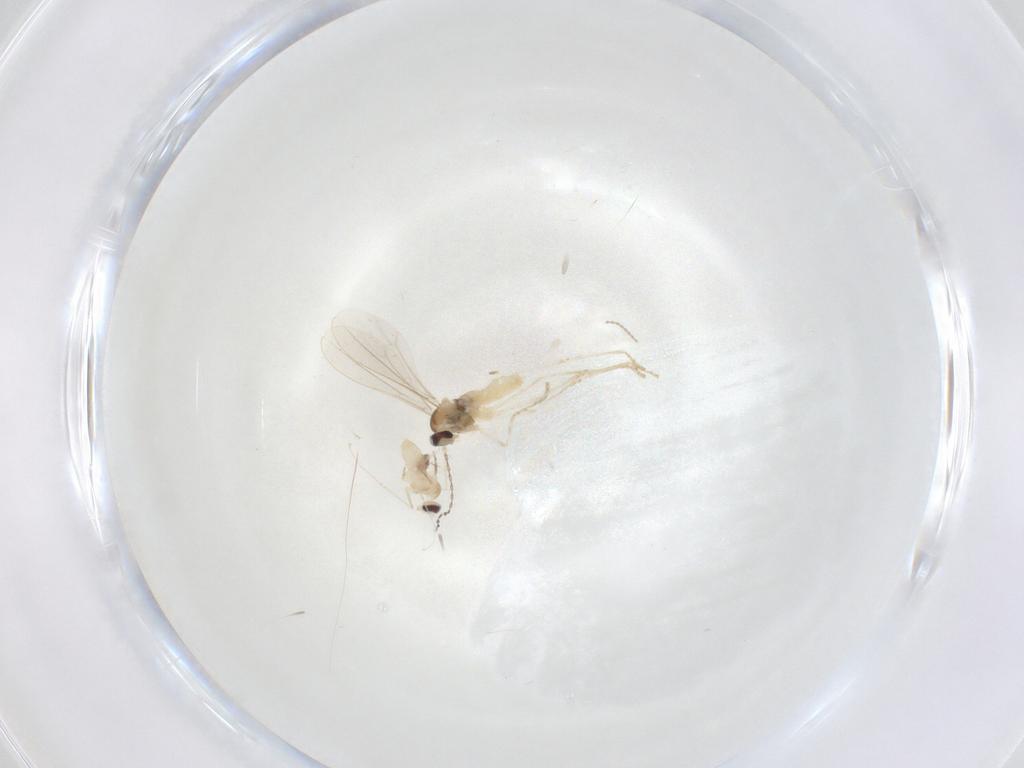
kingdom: Animalia
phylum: Arthropoda
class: Insecta
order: Diptera
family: Cecidomyiidae
